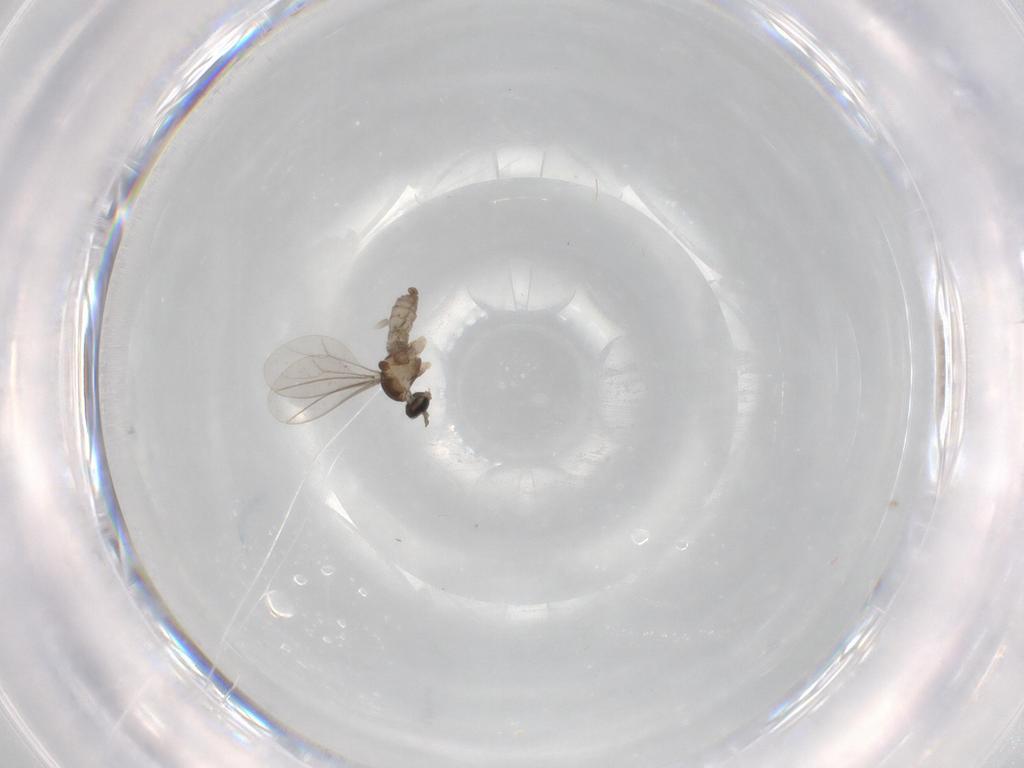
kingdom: Animalia
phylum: Arthropoda
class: Insecta
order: Diptera
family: Cecidomyiidae
